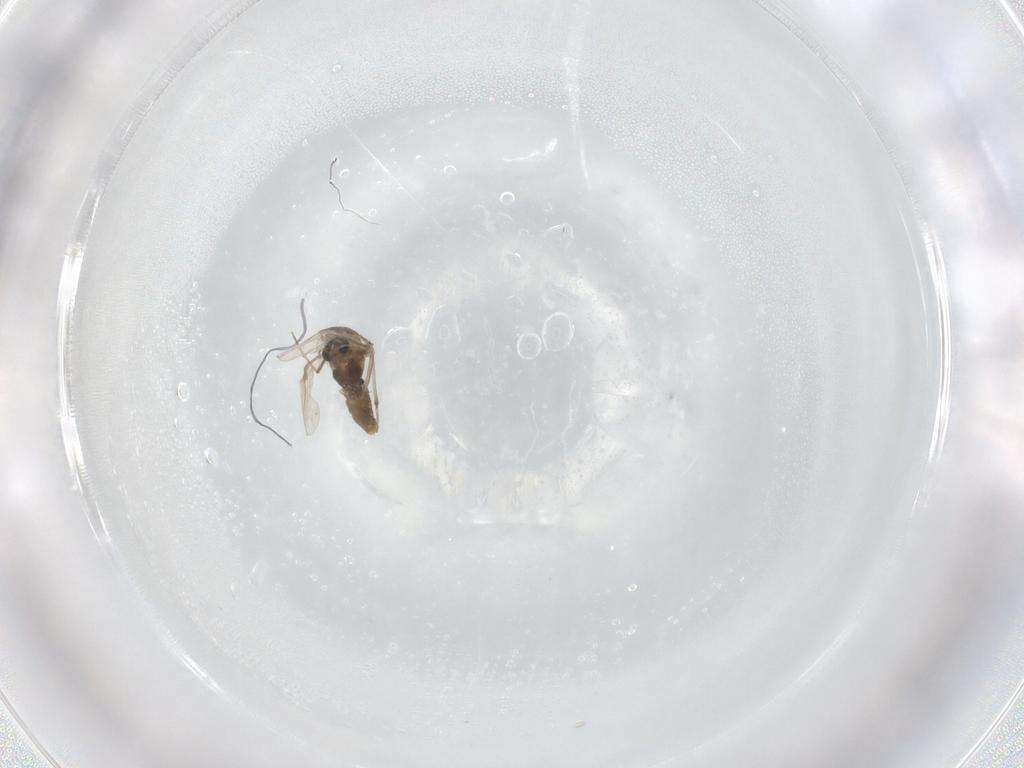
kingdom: Animalia
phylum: Arthropoda
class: Insecta
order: Diptera
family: Chironomidae
